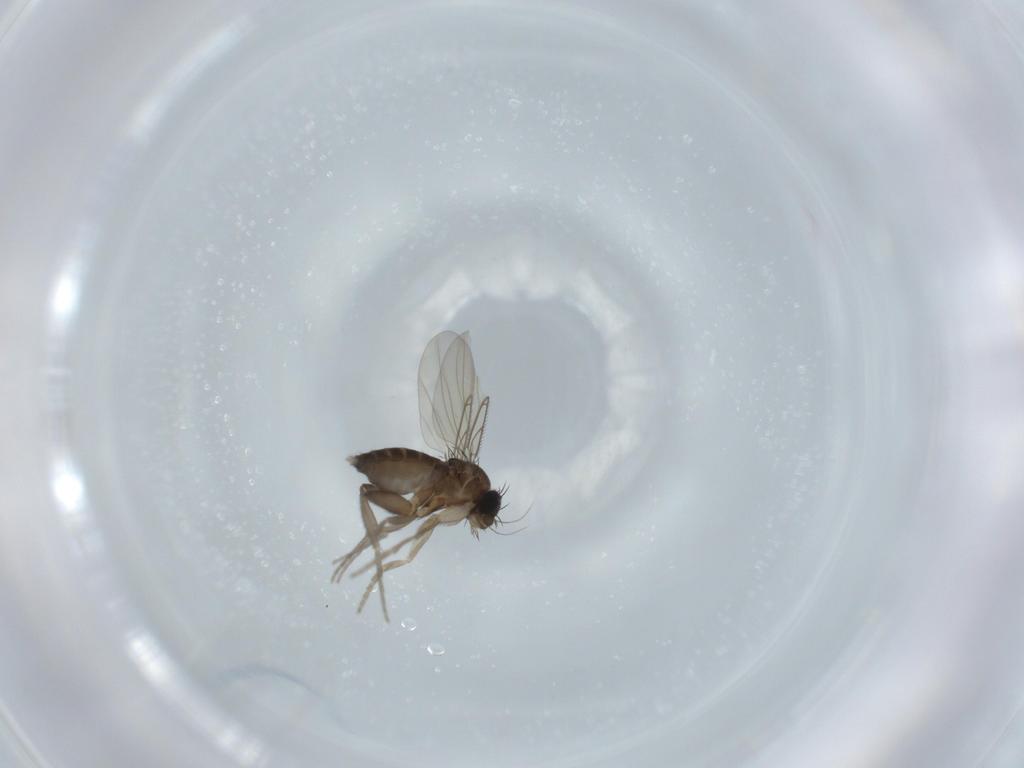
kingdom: Animalia
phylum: Arthropoda
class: Insecta
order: Diptera
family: Phoridae
